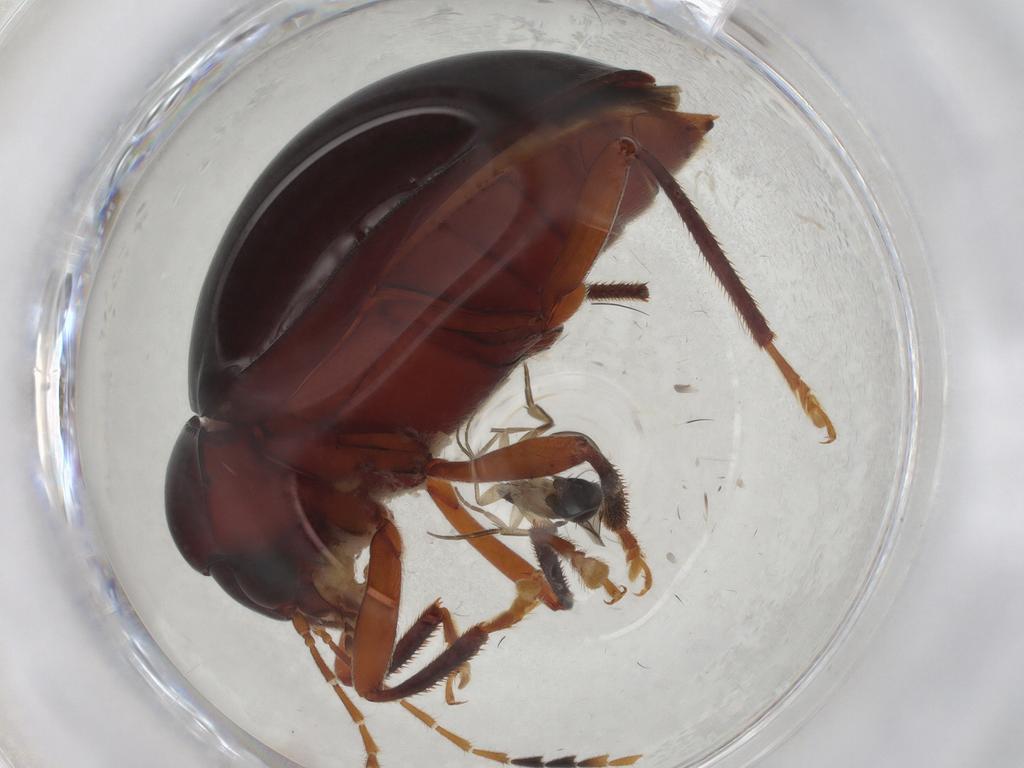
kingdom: Animalia
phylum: Arthropoda
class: Insecta
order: Diptera
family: Phoridae
